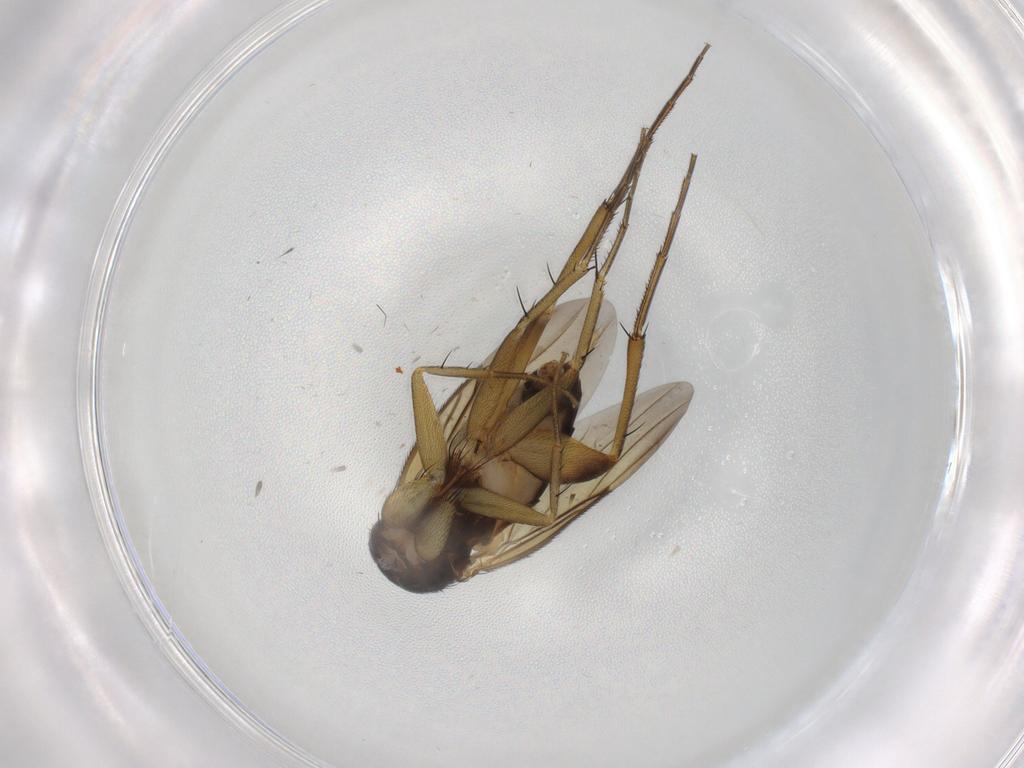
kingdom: Animalia
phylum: Arthropoda
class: Insecta
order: Diptera
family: Phoridae
